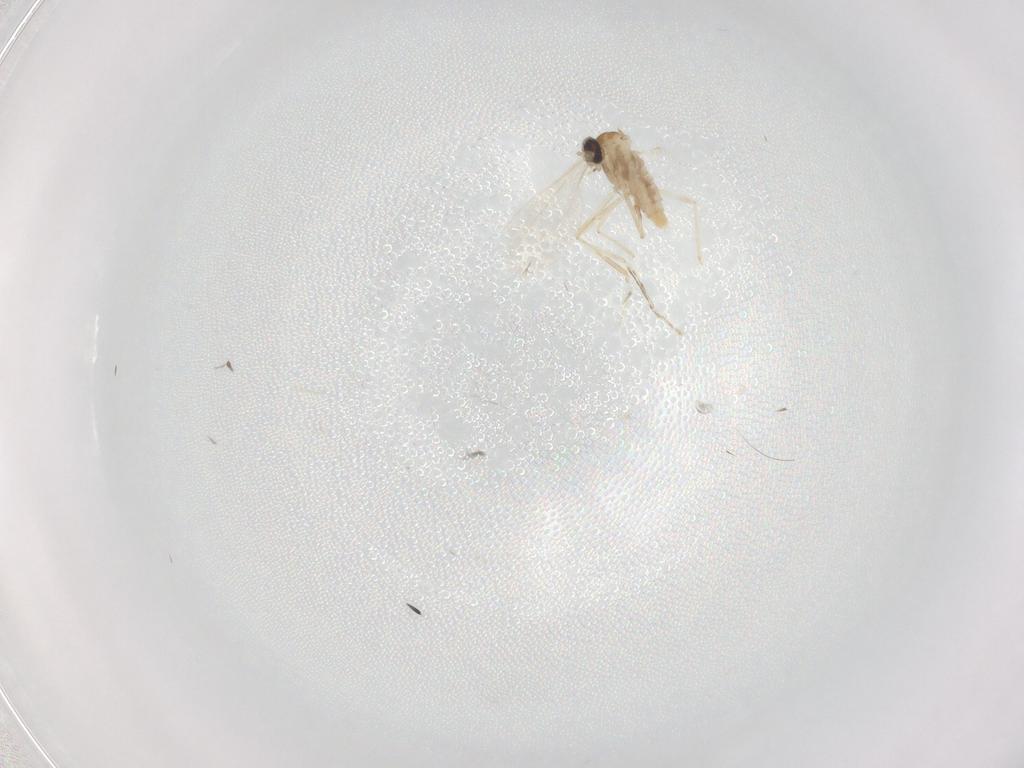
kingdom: Animalia
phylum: Arthropoda
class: Insecta
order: Diptera
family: Cecidomyiidae
